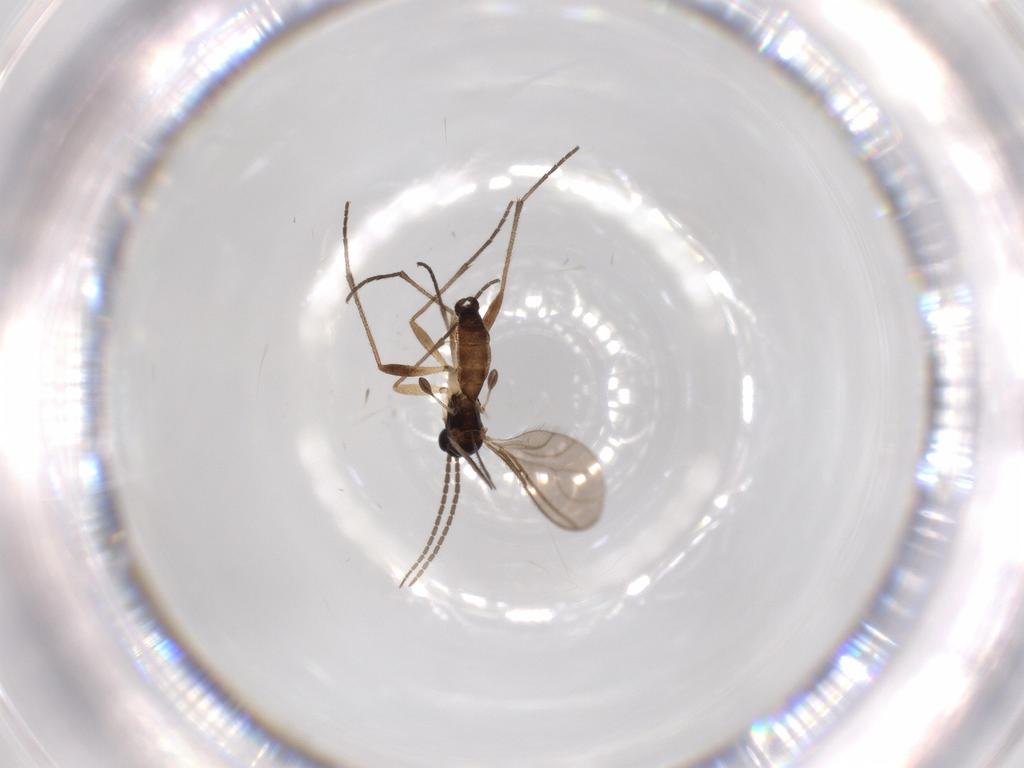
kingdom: Animalia
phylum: Arthropoda
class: Insecta
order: Diptera
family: Sciaridae
